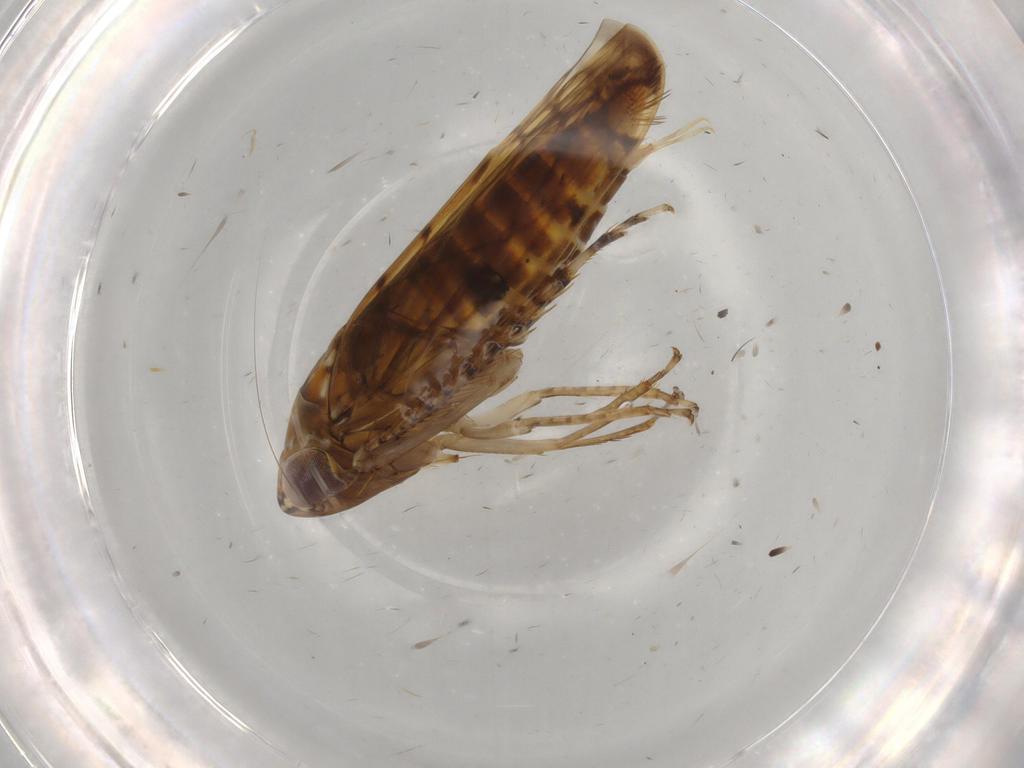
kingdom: Animalia
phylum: Arthropoda
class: Insecta
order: Hemiptera
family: Cicadellidae
